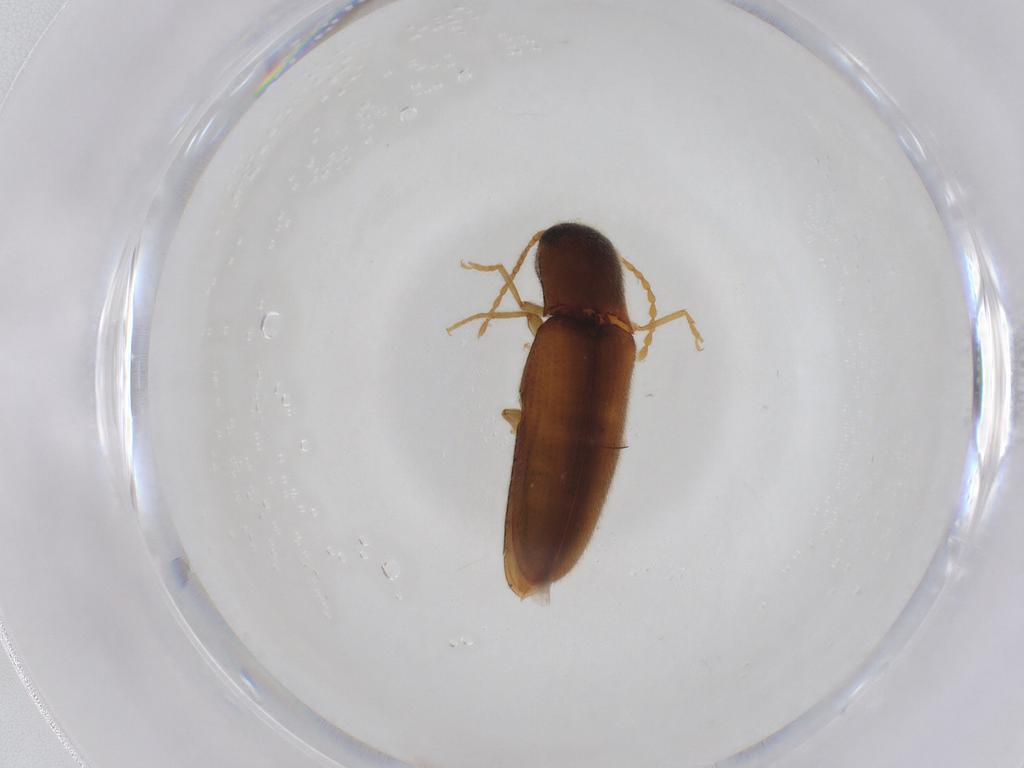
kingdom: Animalia
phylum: Arthropoda
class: Insecta
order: Coleoptera
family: Elateridae
